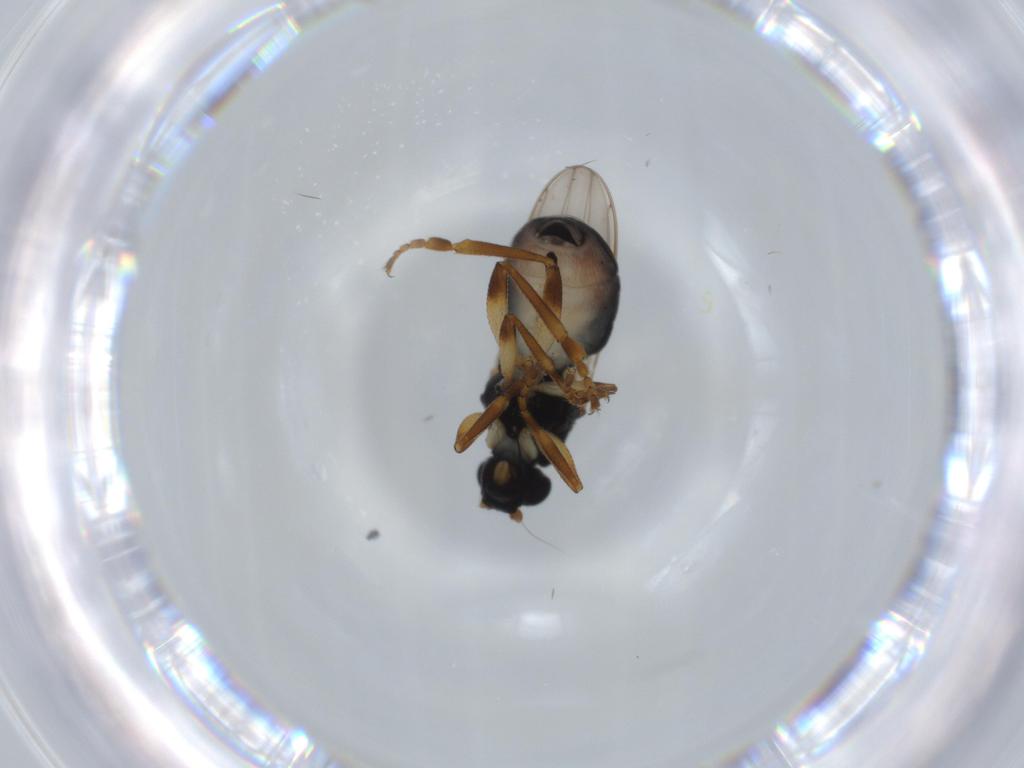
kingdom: Animalia
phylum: Arthropoda
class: Insecta
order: Diptera
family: Sphaeroceridae
